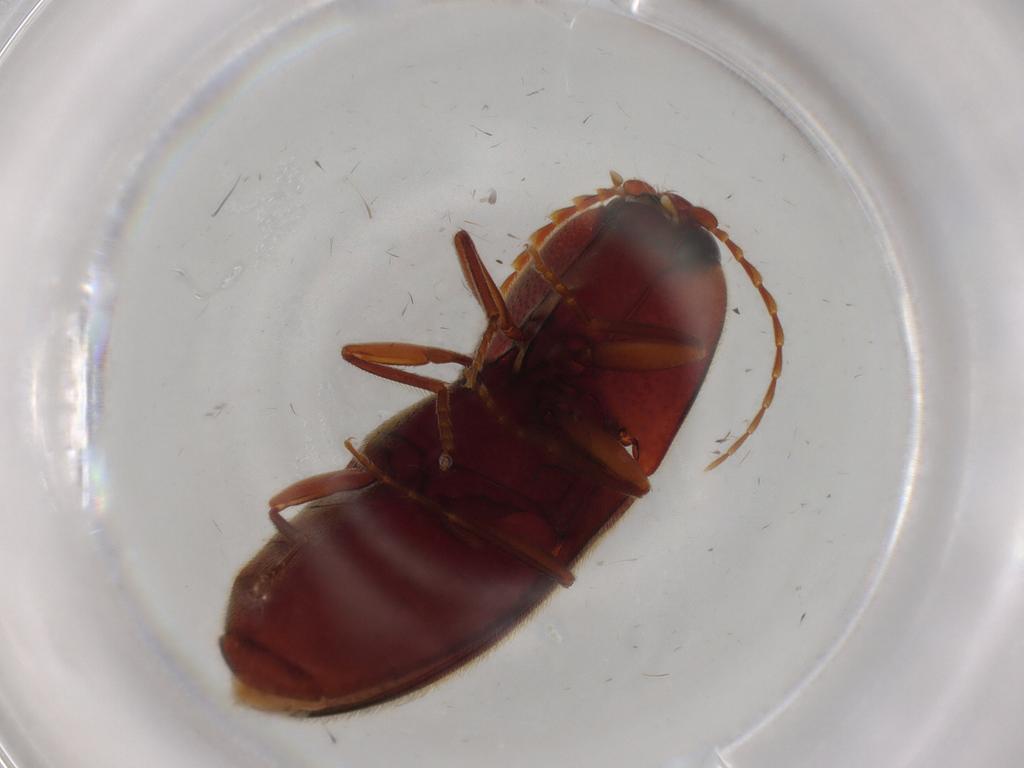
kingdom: Animalia
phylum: Arthropoda
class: Insecta
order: Coleoptera
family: Elateridae
